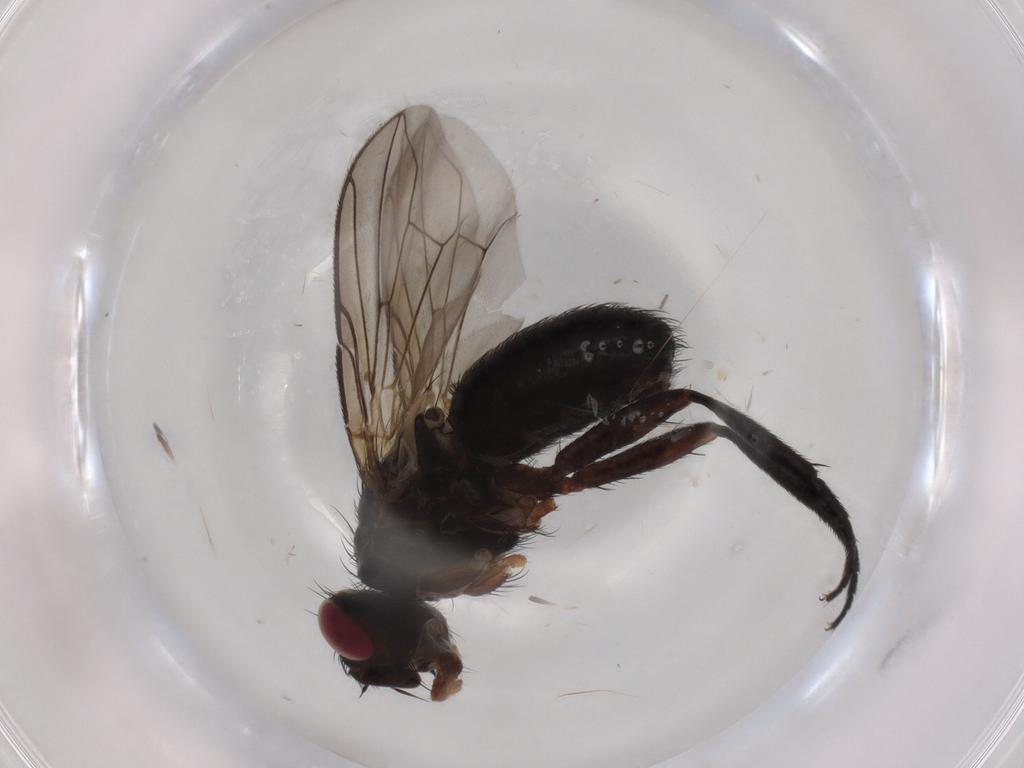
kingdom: Animalia
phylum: Arthropoda
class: Insecta
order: Diptera
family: Tachinidae
